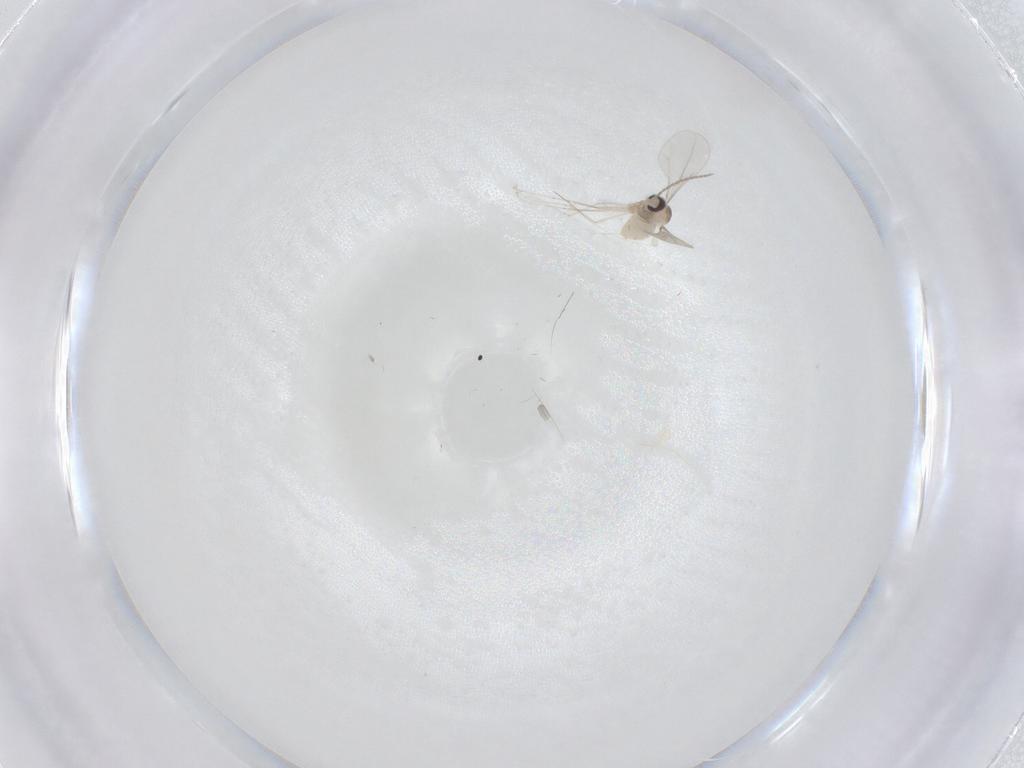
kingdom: Animalia
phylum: Arthropoda
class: Insecta
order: Diptera
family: Cecidomyiidae
